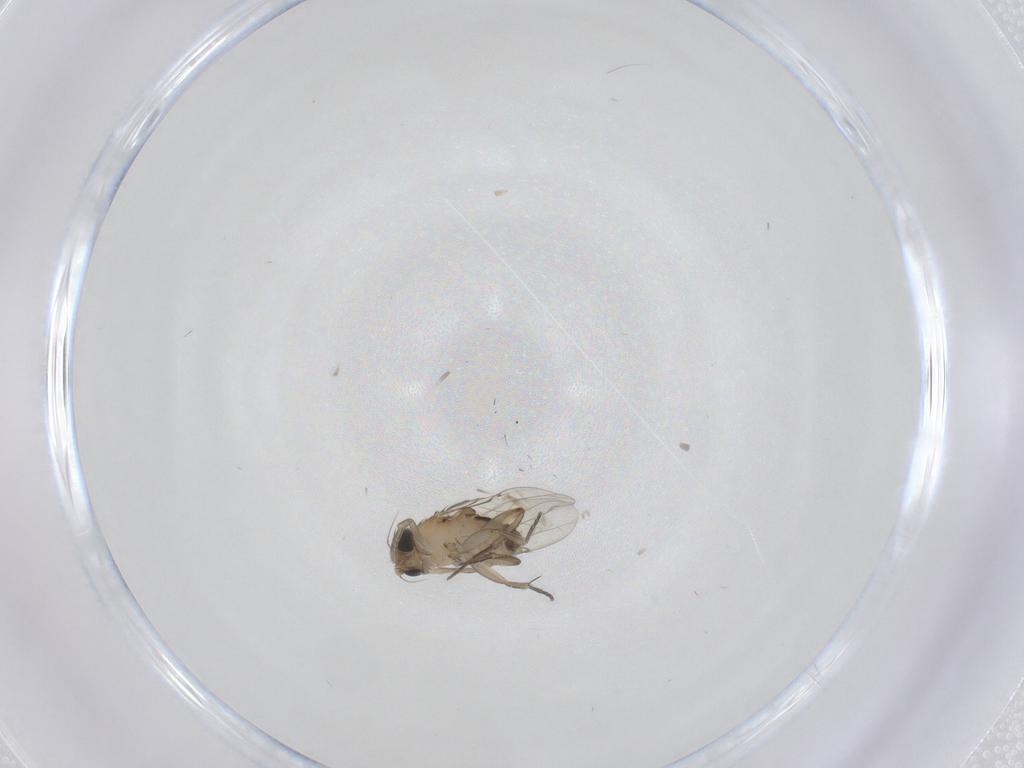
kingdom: Animalia
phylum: Arthropoda
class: Insecta
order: Diptera
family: Phoridae
